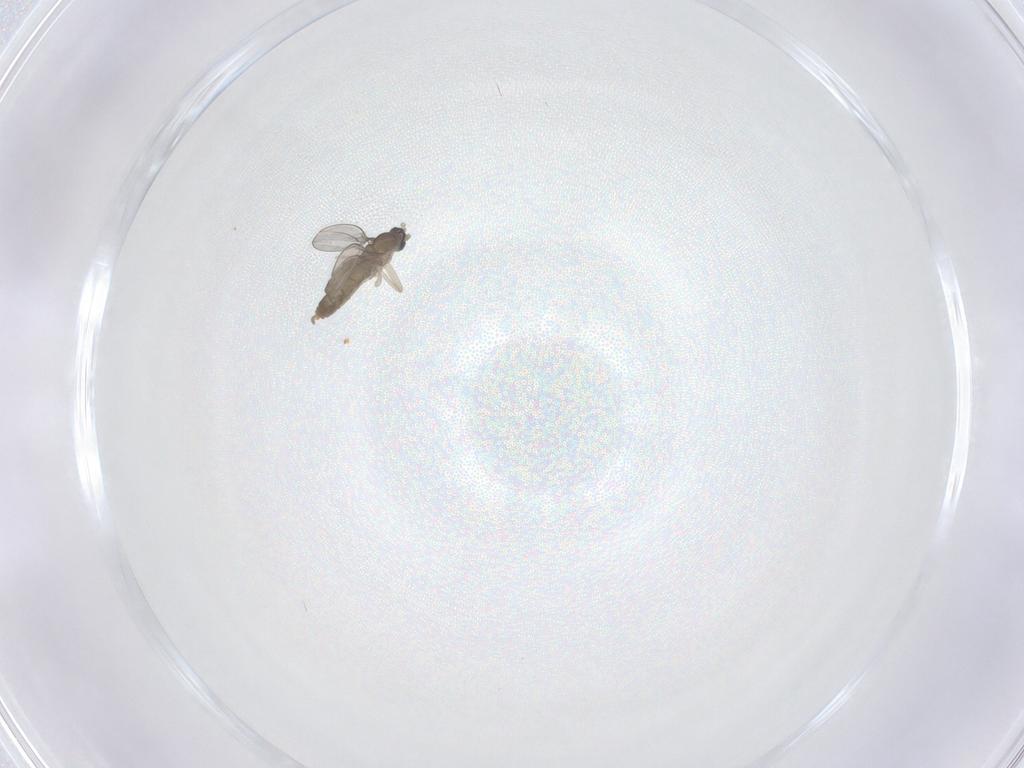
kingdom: Animalia
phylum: Arthropoda
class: Insecta
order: Diptera
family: Cecidomyiidae
